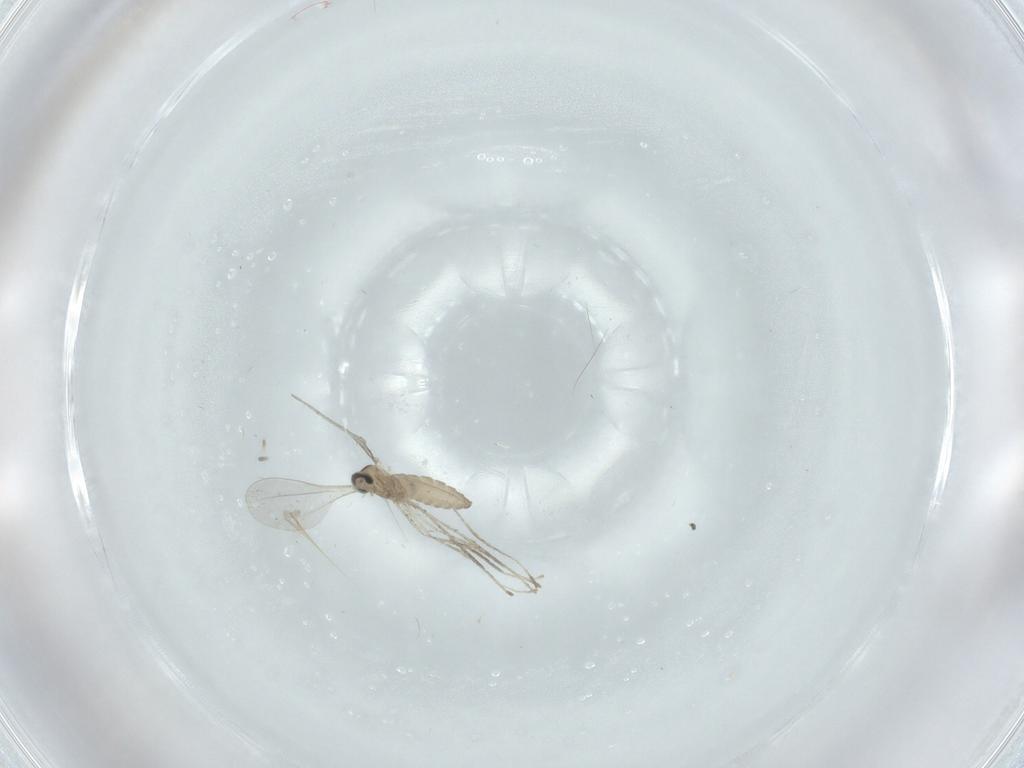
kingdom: Animalia
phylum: Arthropoda
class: Insecta
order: Diptera
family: Cecidomyiidae
